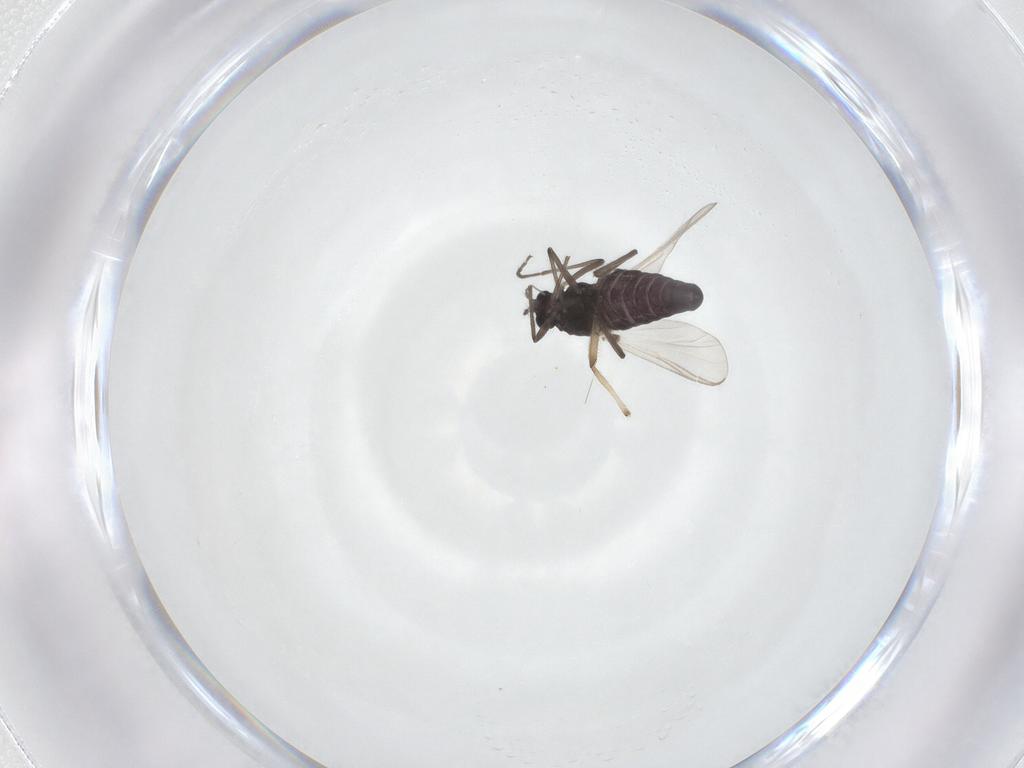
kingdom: Animalia
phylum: Arthropoda
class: Insecta
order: Diptera
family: Chironomidae
